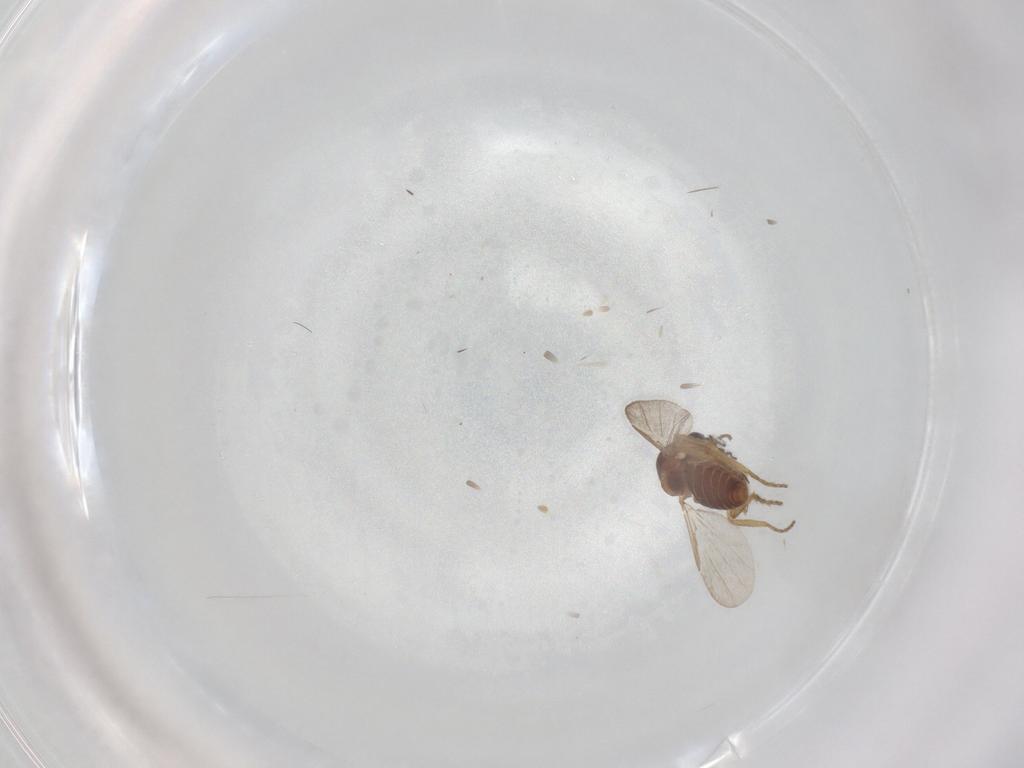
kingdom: Animalia
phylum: Arthropoda
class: Insecta
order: Diptera
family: Ceratopogonidae
